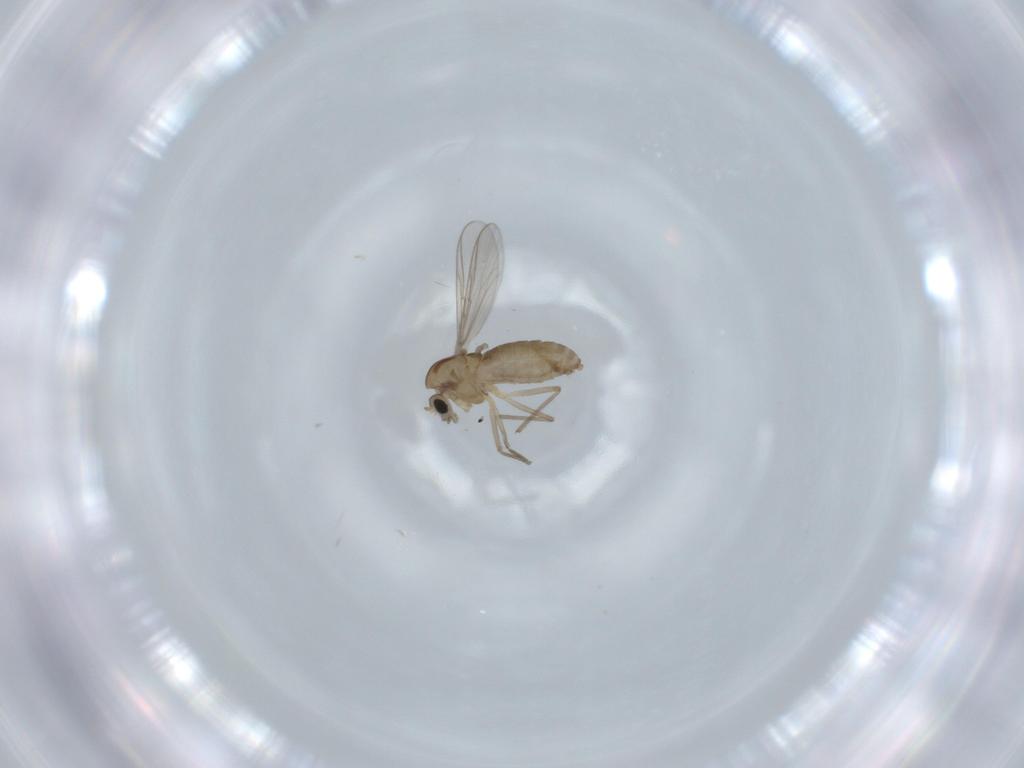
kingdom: Animalia
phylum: Arthropoda
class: Insecta
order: Diptera
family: Chironomidae
